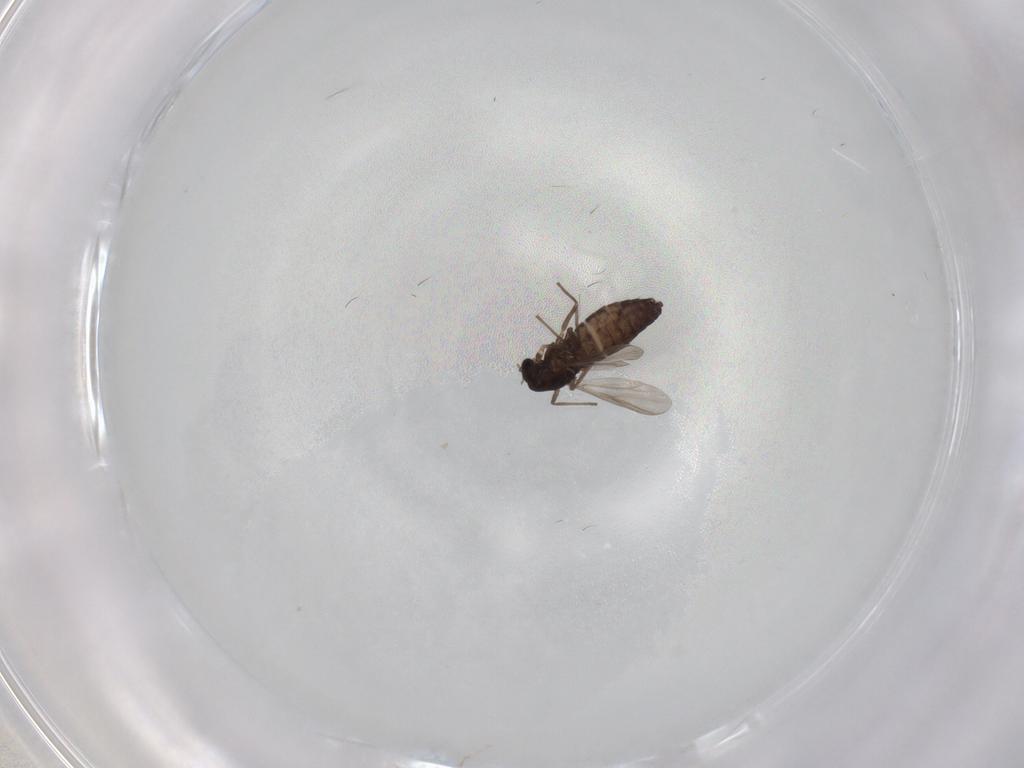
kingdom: Animalia
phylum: Arthropoda
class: Insecta
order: Diptera
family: Chironomidae
